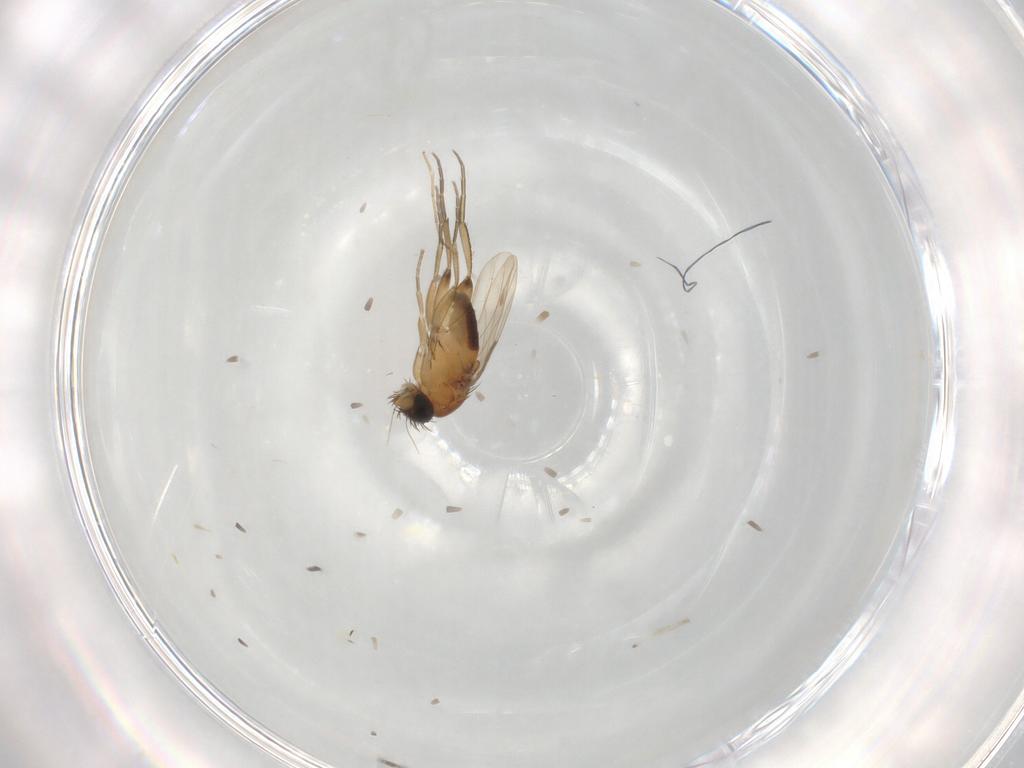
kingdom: Animalia
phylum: Arthropoda
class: Insecta
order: Diptera
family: Chironomidae
